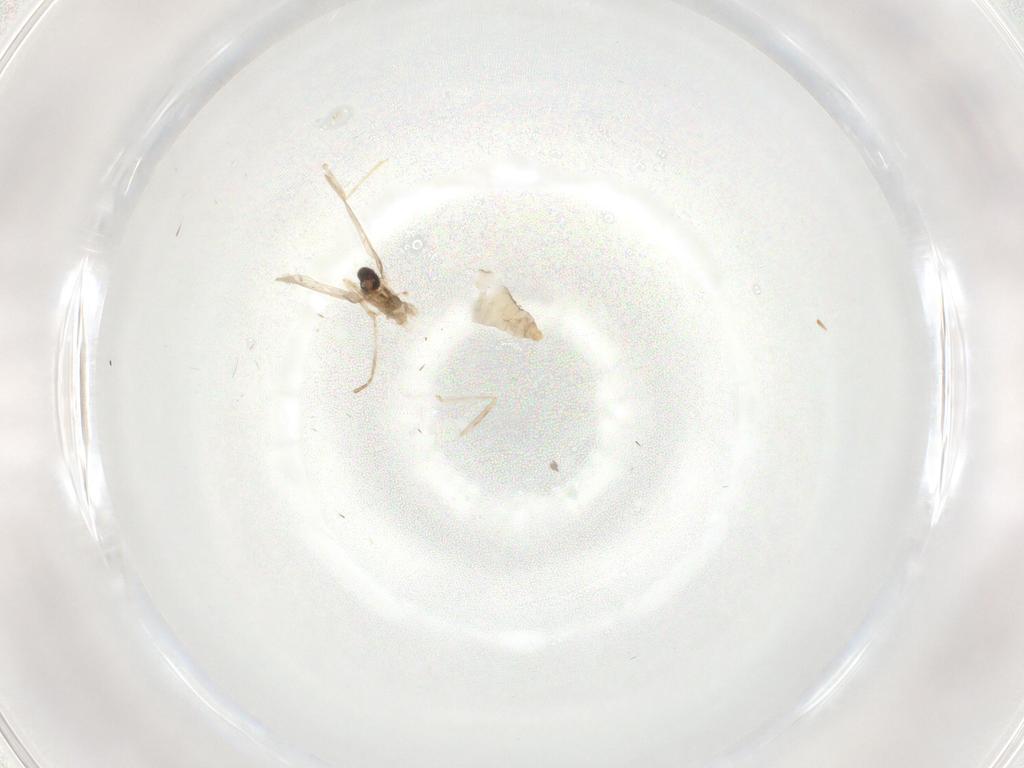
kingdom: Animalia
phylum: Arthropoda
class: Insecta
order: Diptera
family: Cecidomyiidae
